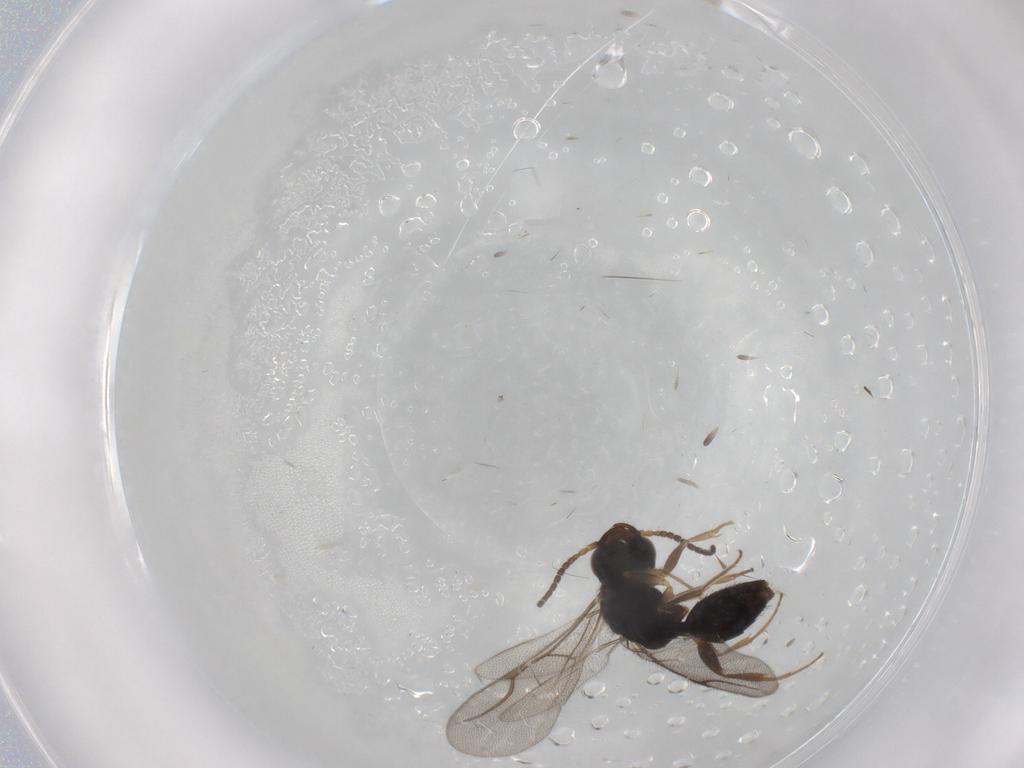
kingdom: Animalia
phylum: Arthropoda
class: Insecta
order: Hymenoptera
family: Bethylidae
